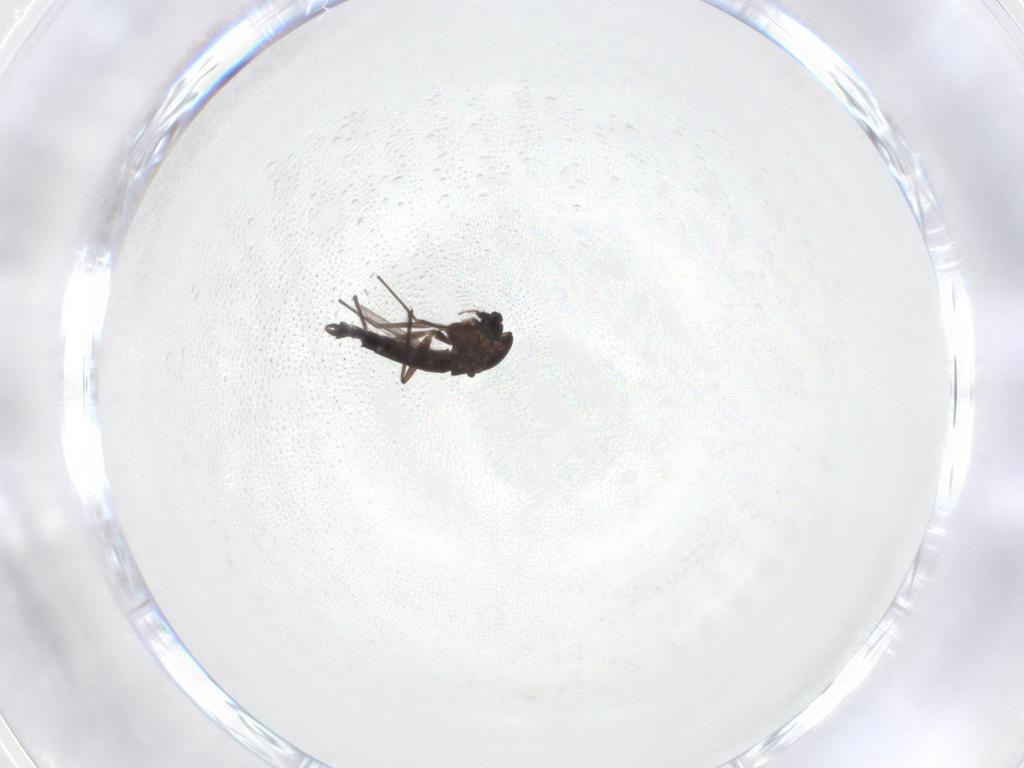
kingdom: Animalia
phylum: Arthropoda
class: Insecta
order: Diptera
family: Chironomidae
